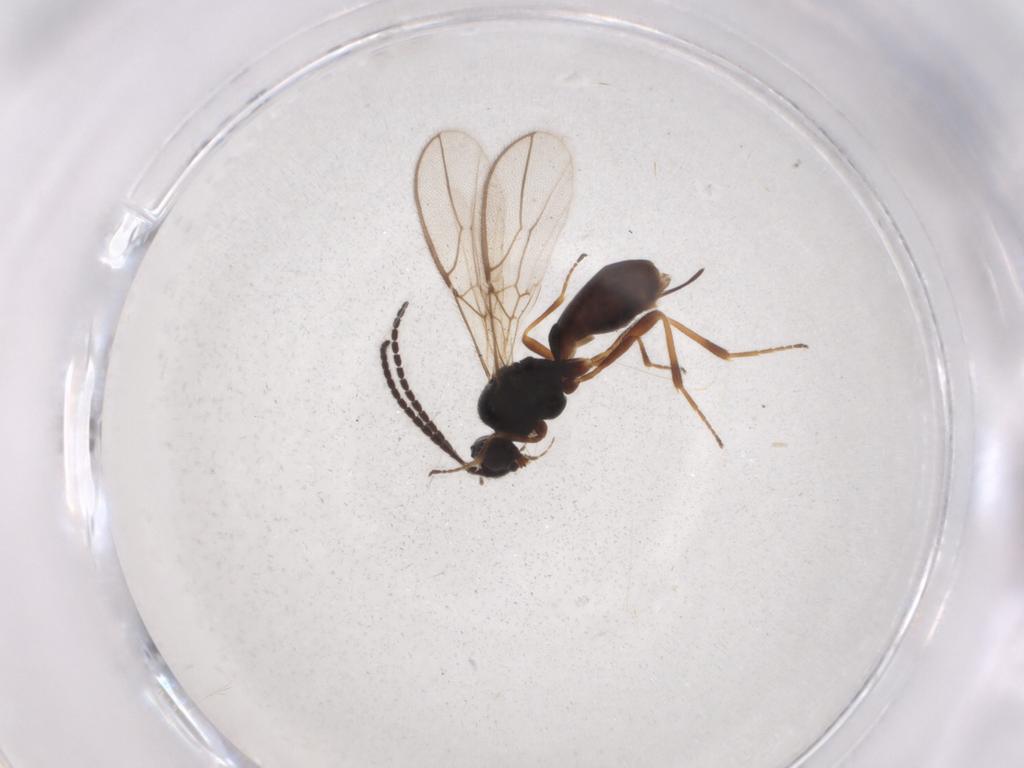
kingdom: Animalia
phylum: Arthropoda
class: Insecta
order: Hymenoptera
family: Braconidae
